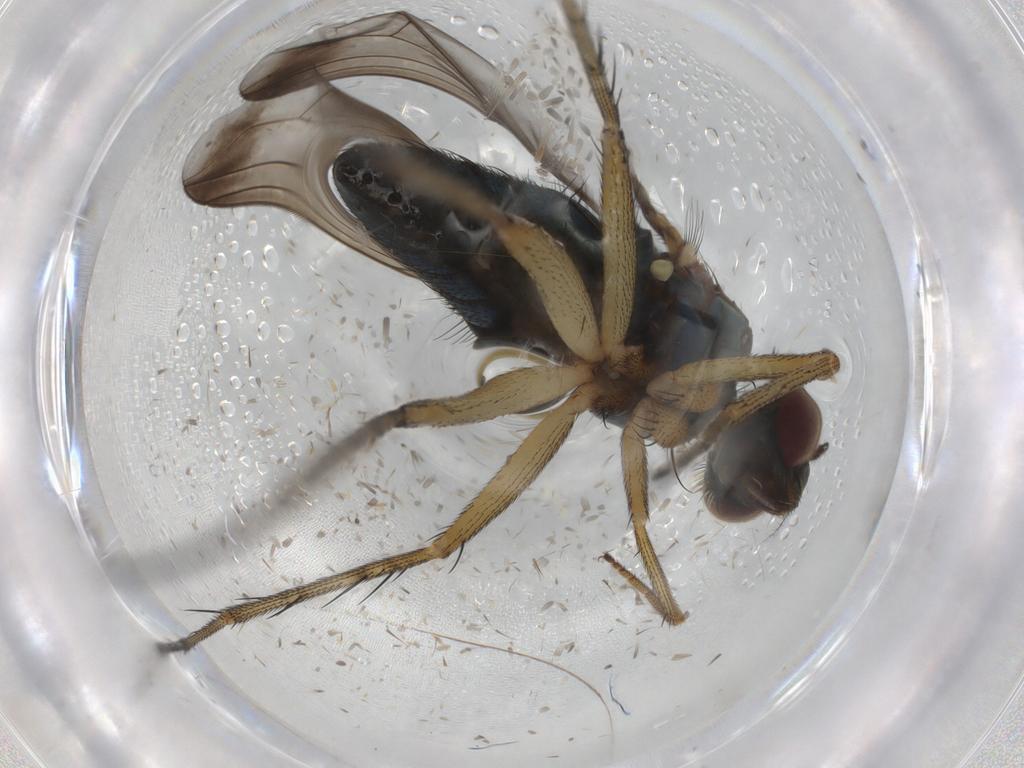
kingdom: Animalia
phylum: Arthropoda
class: Insecta
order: Diptera
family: Dolichopodidae
